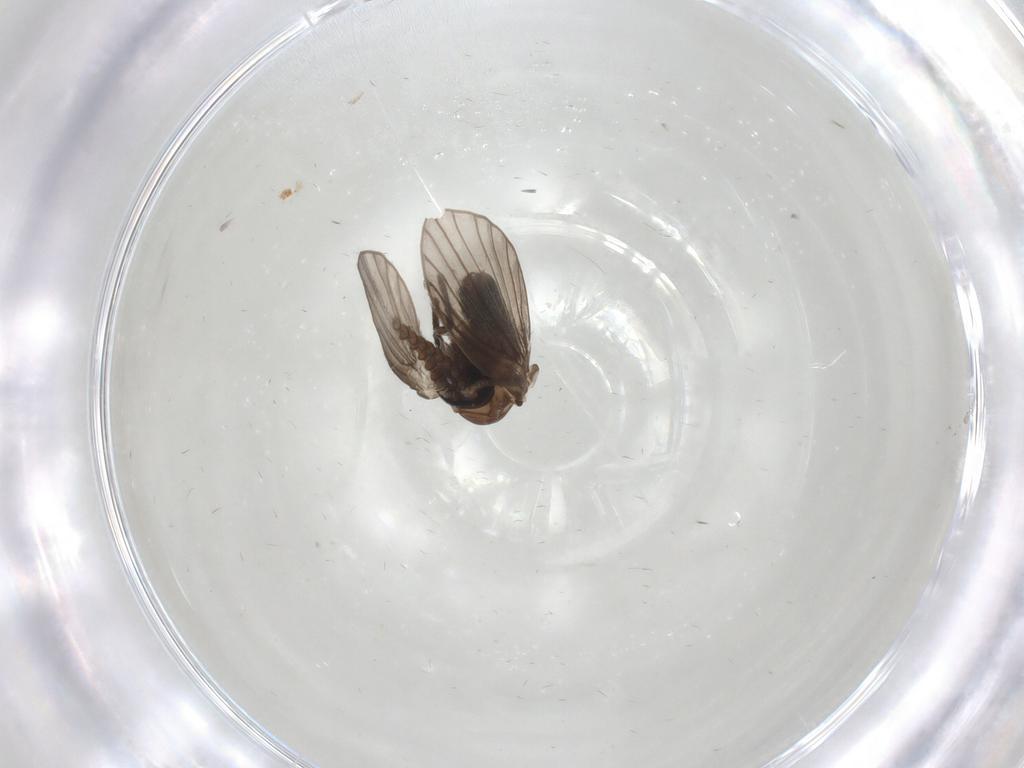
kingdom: Animalia
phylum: Arthropoda
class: Insecta
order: Diptera
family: Psychodidae
